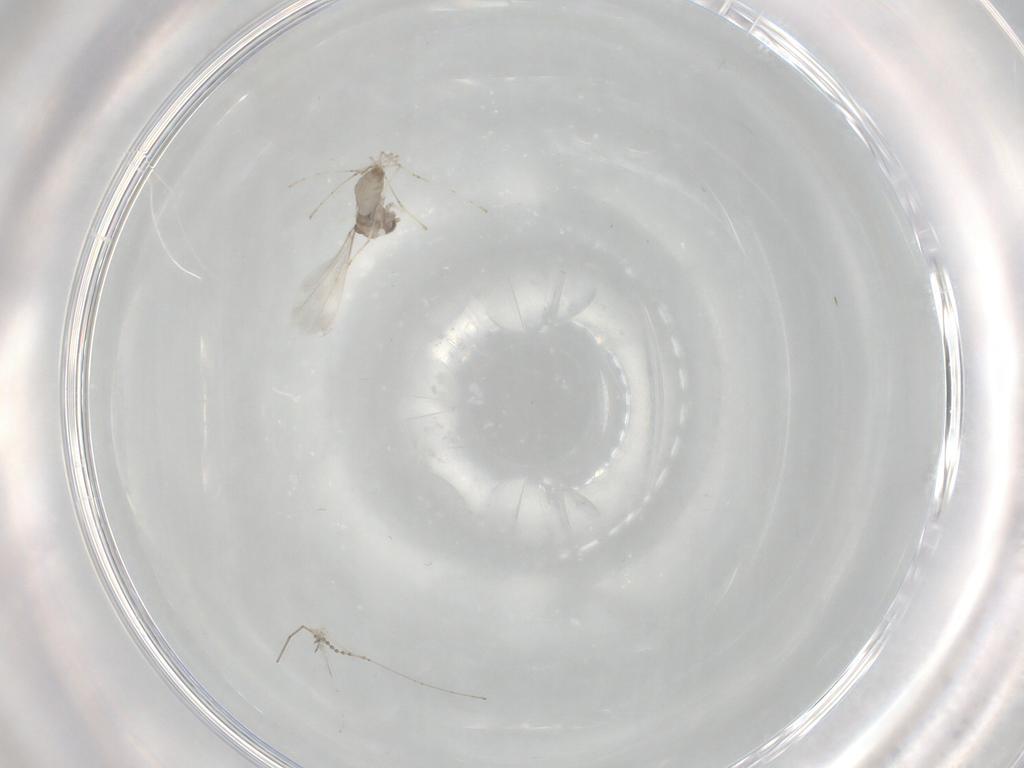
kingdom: Animalia
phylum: Arthropoda
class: Insecta
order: Diptera
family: Milichiidae
